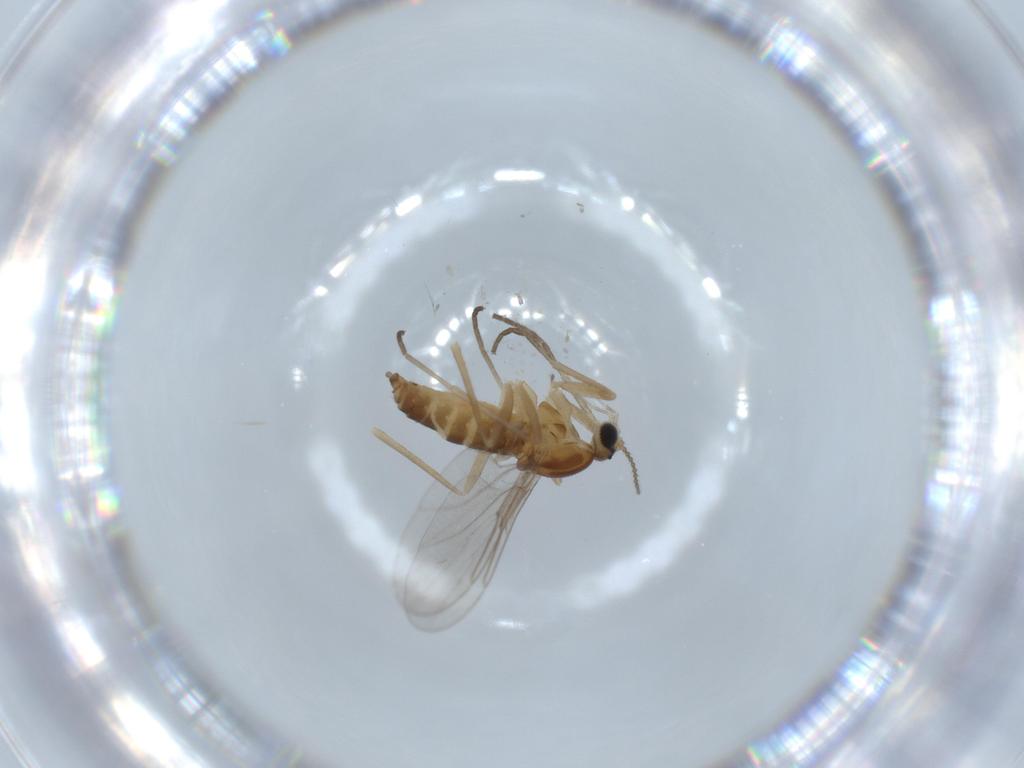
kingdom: Animalia
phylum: Arthropoda
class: Insecta
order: Diptera
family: Cecidomyiidae
